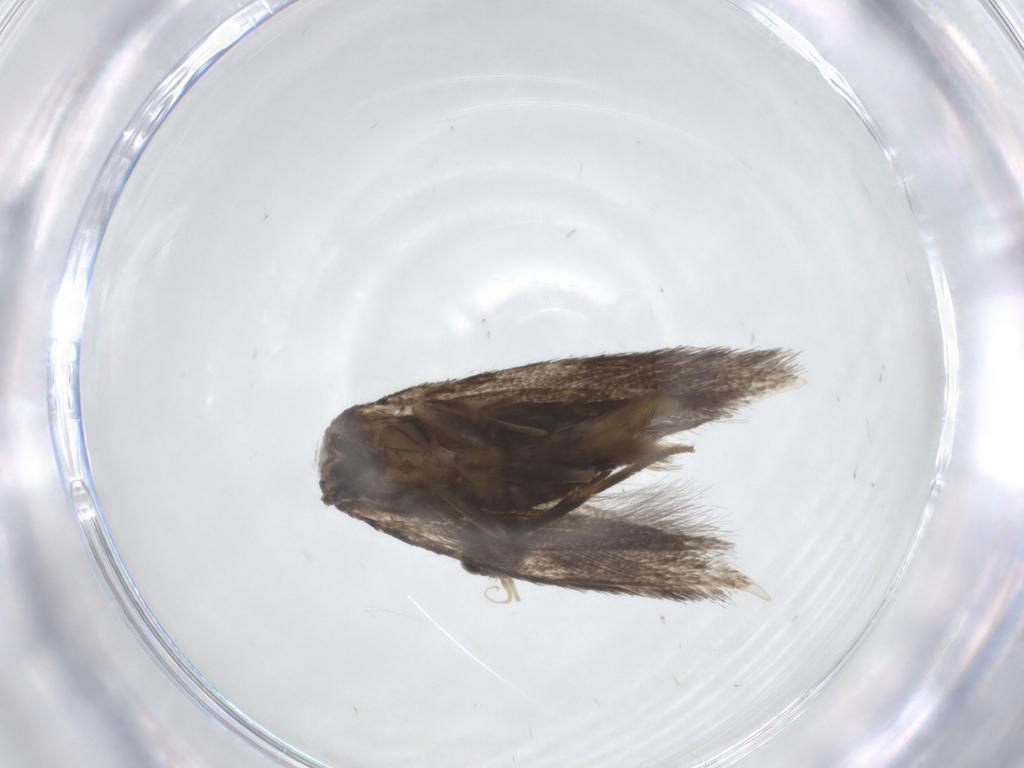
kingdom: Animalia
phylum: Arthropoda
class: Insecta
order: Lepidoptera
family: Elachistidae
